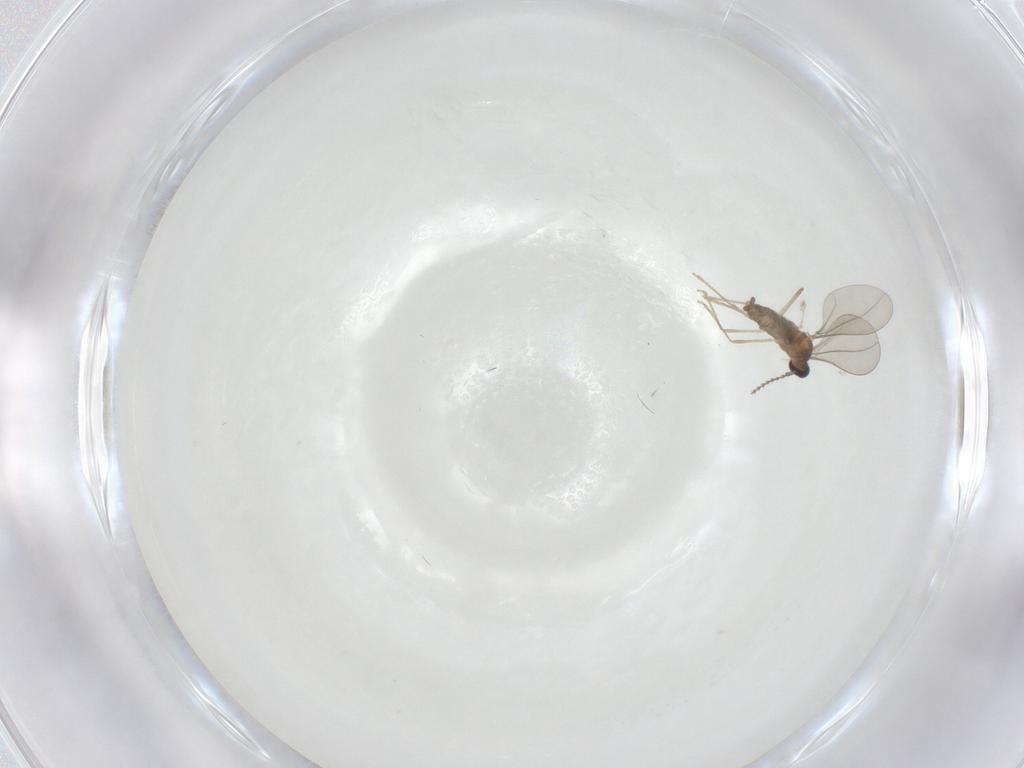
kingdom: Animalia
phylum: Arthropoda
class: Insecta
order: Diptera
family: Cecidomyiidae
